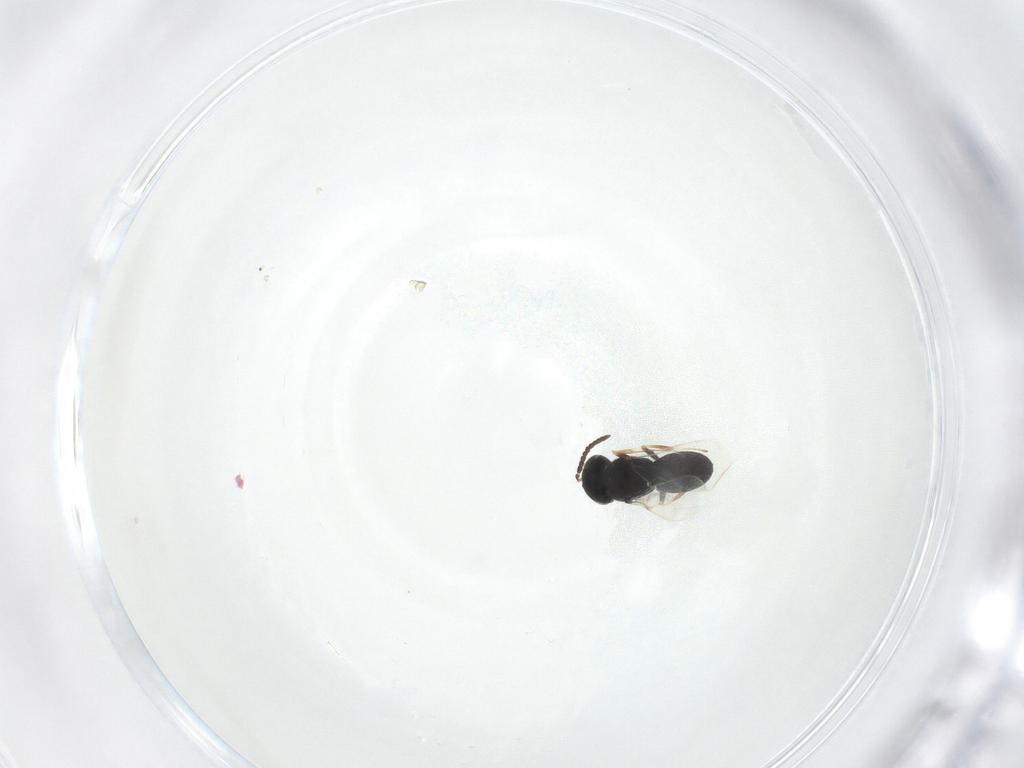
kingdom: Animalia
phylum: Arthropoda
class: Insecta
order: Hymenoptera
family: Scelionidae
